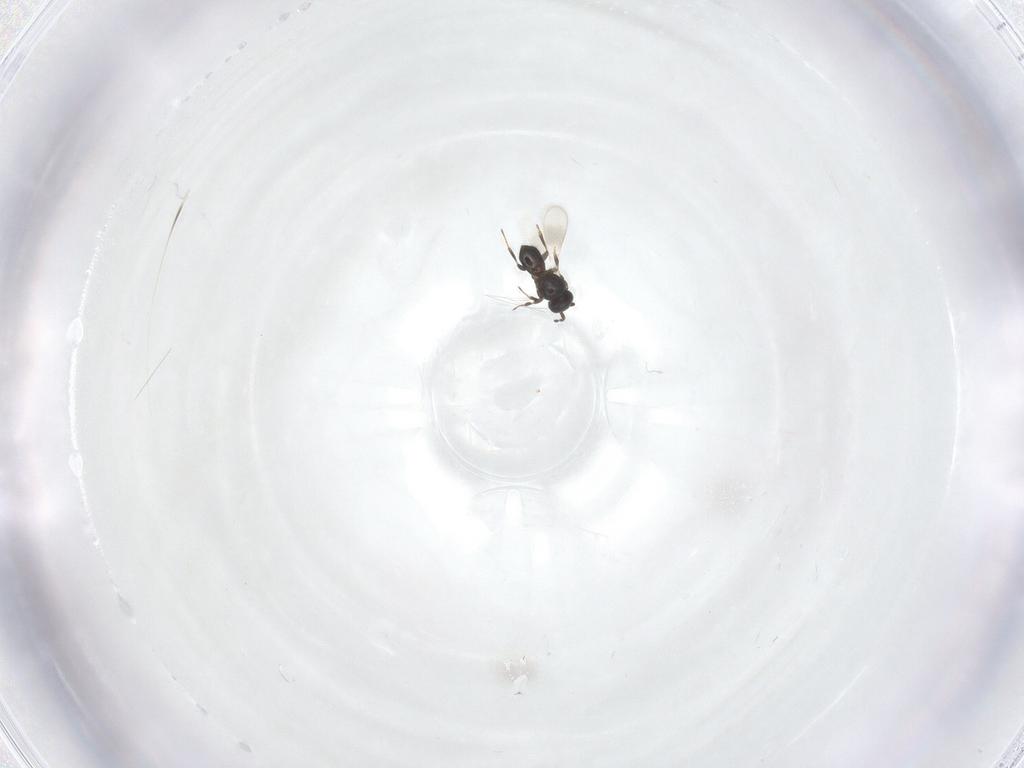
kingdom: Animalia
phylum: Arthropoda
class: Insecta
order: Hymenoptera
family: Platygastridae
